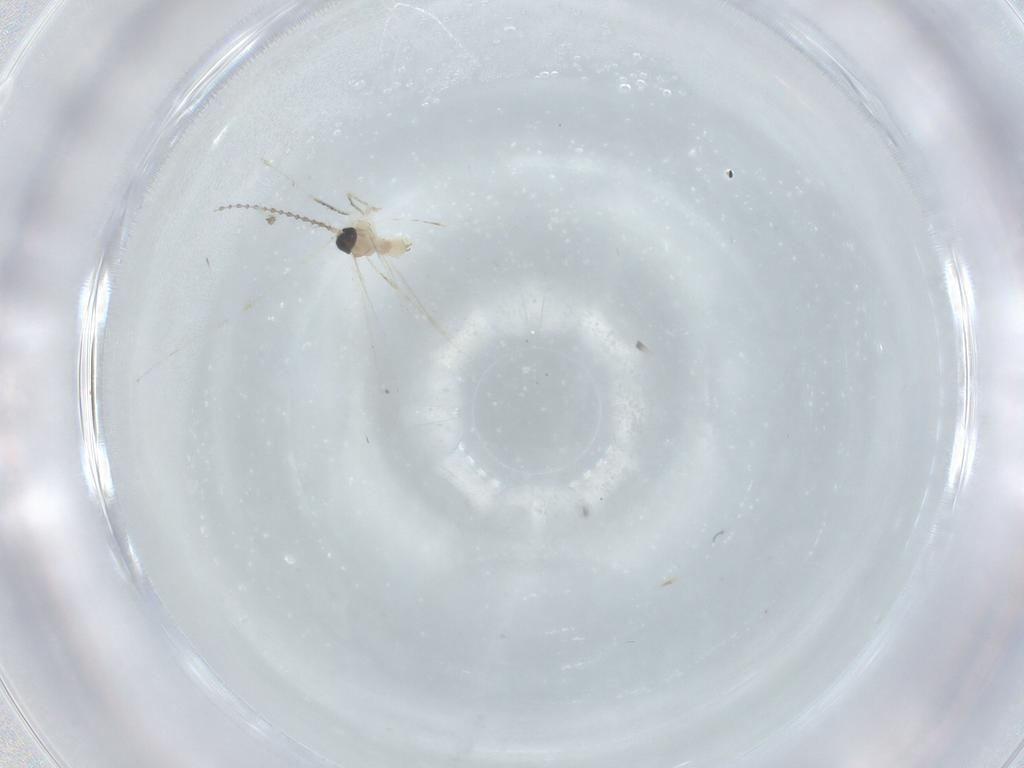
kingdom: Animalia
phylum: Arthropoda
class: Insecta
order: Diptera
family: Cecidomyiidae
